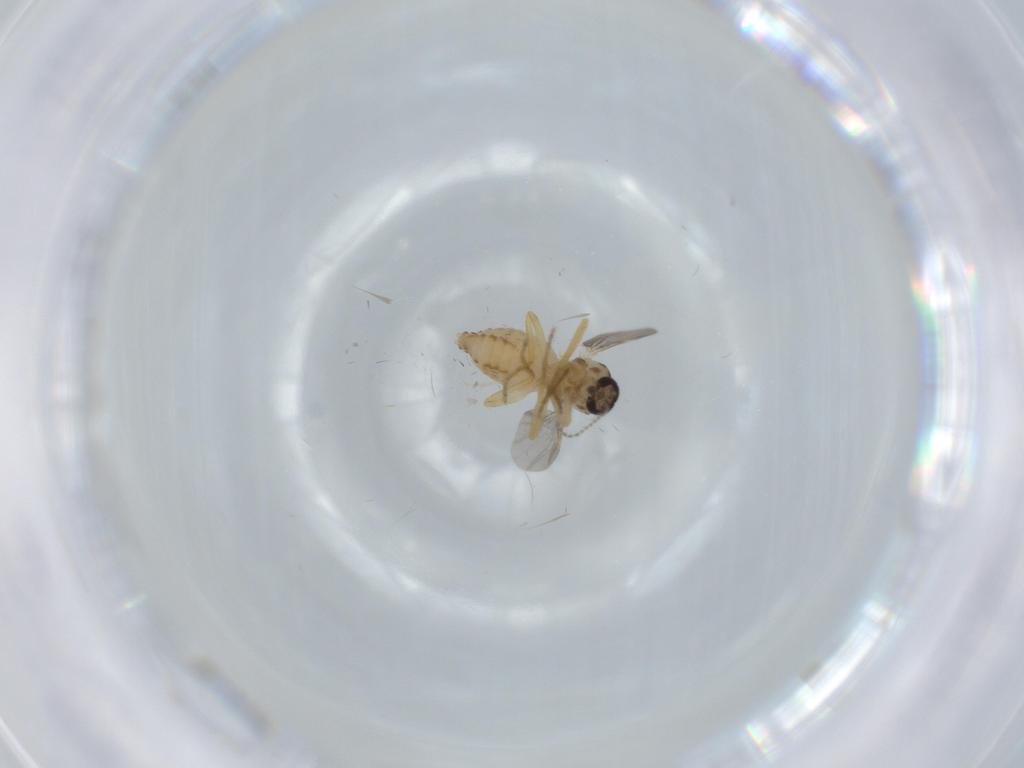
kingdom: Animalia
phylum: Arthropoda
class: Insecta
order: Diptera
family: Ceratopogonidae
